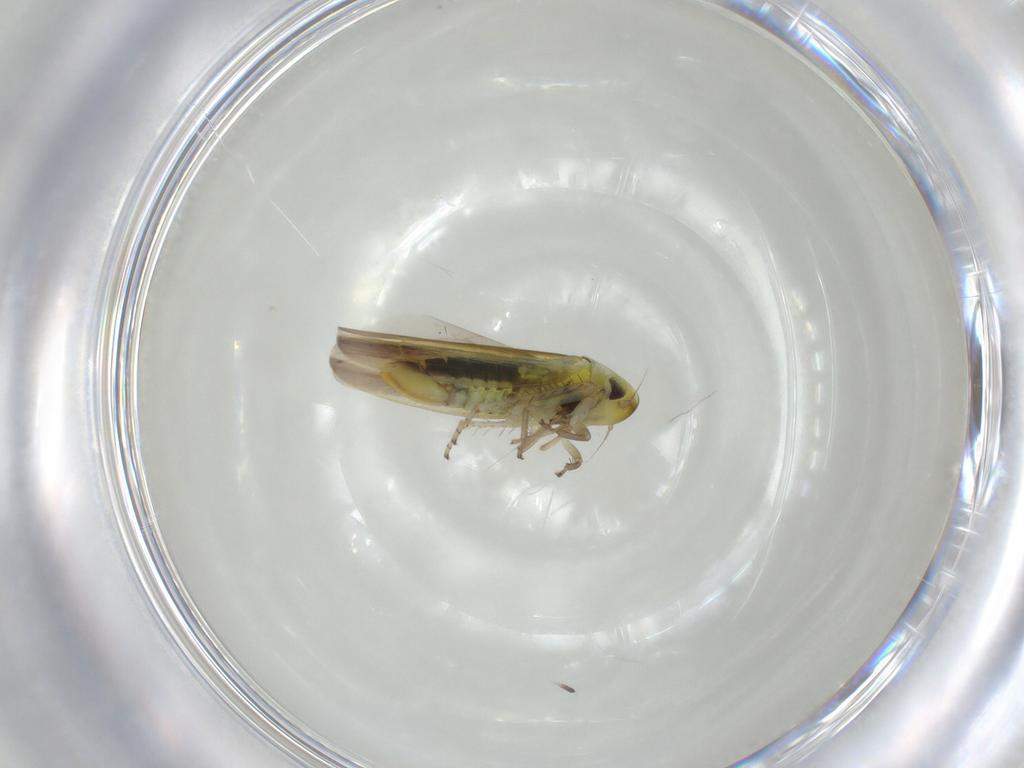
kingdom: Animalia
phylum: Arthropoda
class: Insecta
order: Hemiptera
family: Cicadellidae
